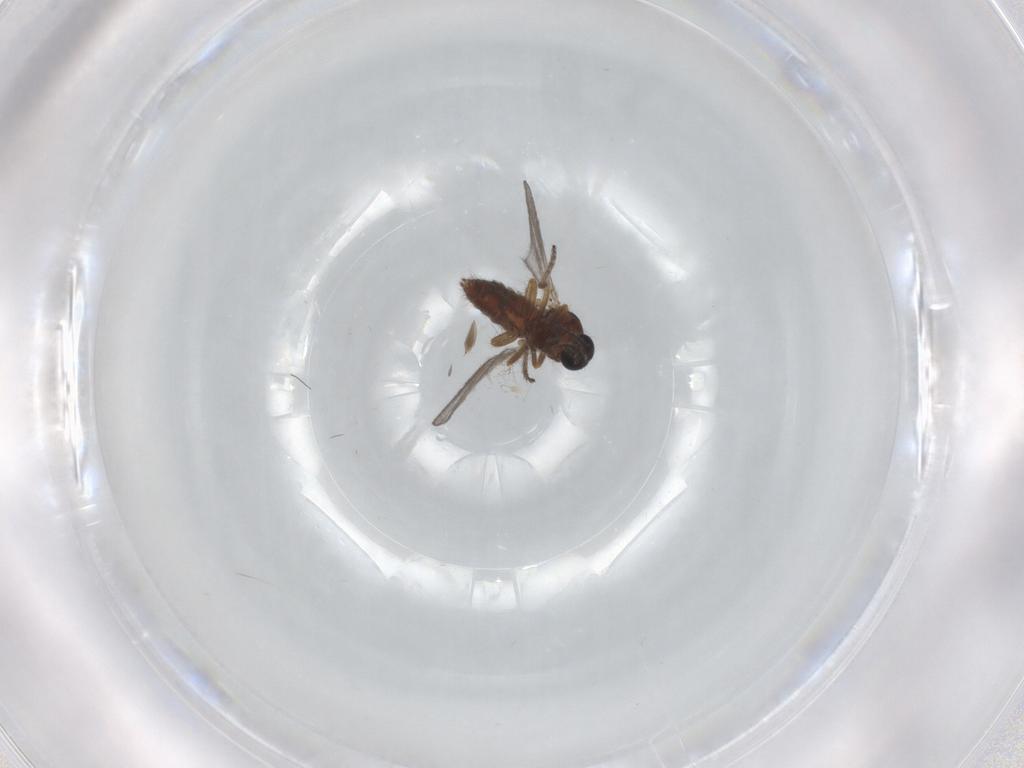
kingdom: Animalia
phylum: Arthropoda
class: Insecta
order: Diptera
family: Ceratopogonidae
